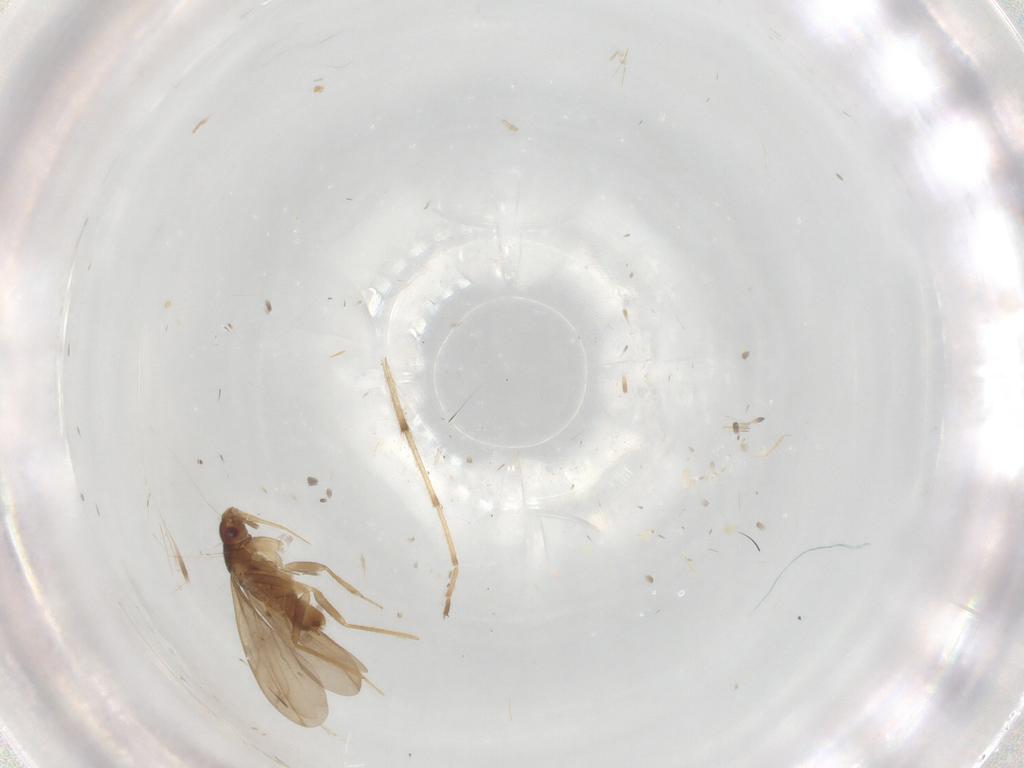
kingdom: Animalia
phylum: Arthropoda
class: Insecta
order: Hemiptera
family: Ceratocombidae
